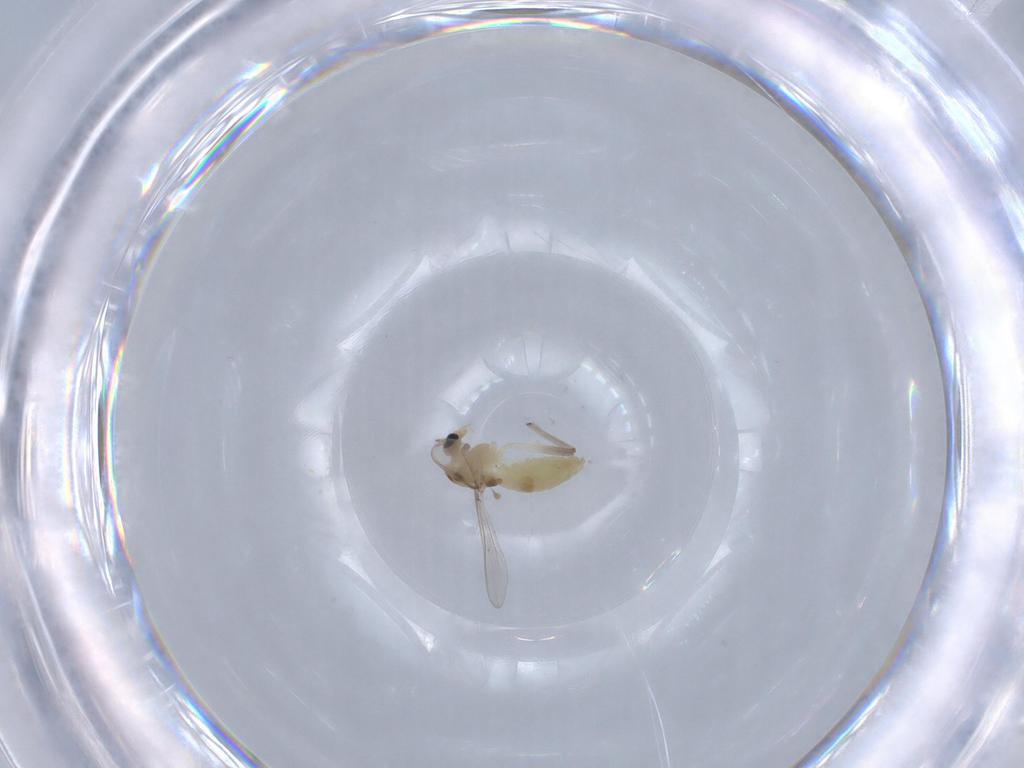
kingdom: Animalia
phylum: Arthropoda
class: Insecta
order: Diptera
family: Chironomidae
